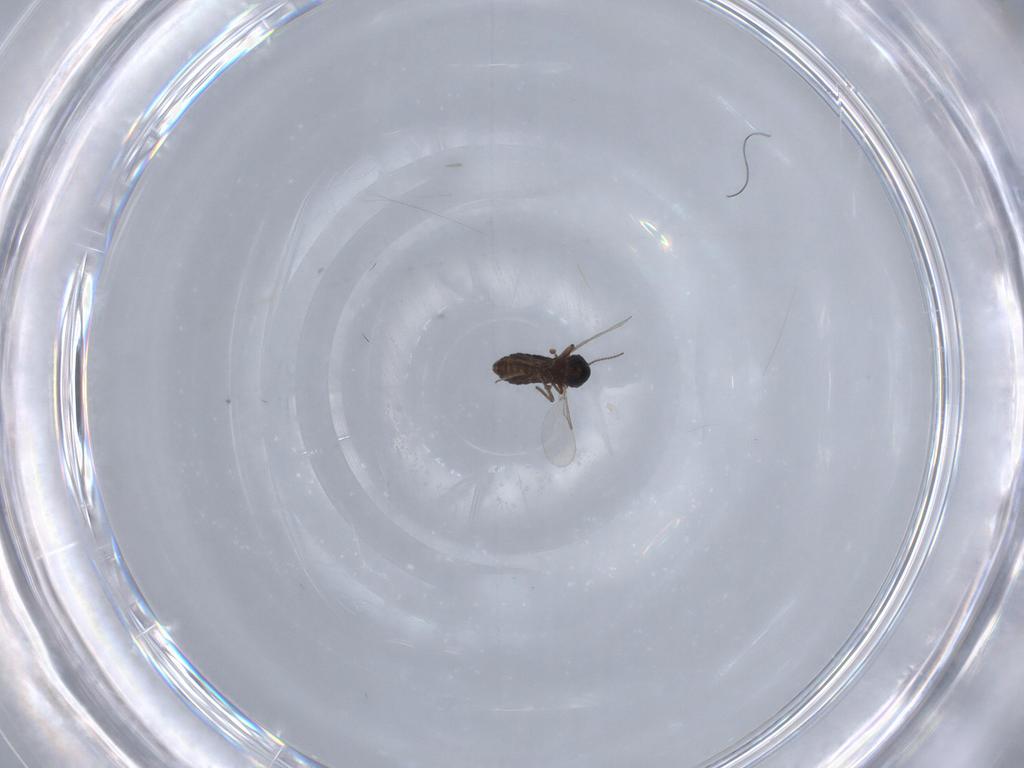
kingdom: Animalia
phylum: Arthropoda
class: Insecta
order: Diptera
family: Ceratopogonidae
